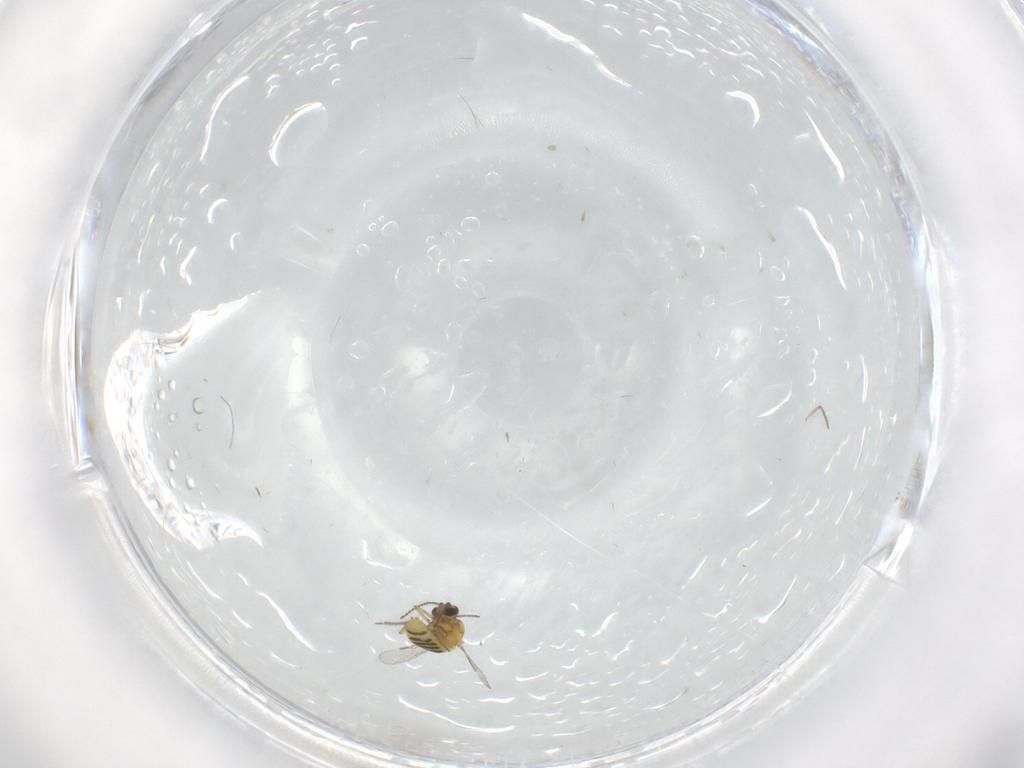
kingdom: Animalia
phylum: Arthropoda
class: Insecta
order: Diptera
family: Ceratopogonidae
